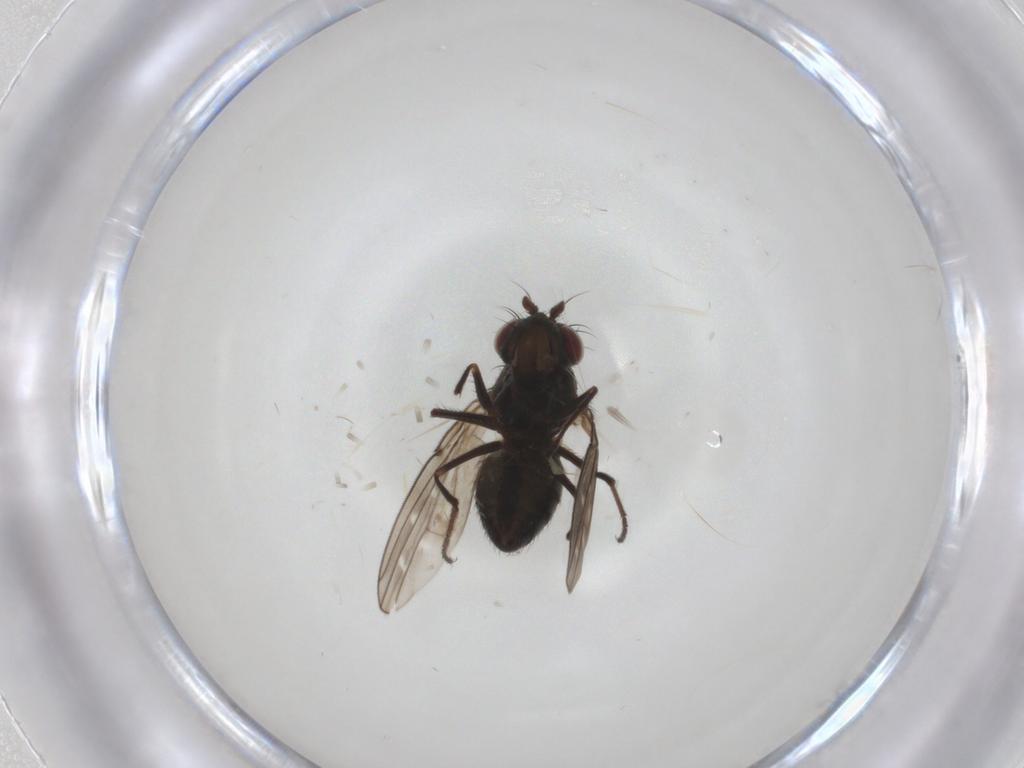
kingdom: Animalia
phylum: Arthropoda
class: Insecta
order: Diptera
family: Ephydridae
